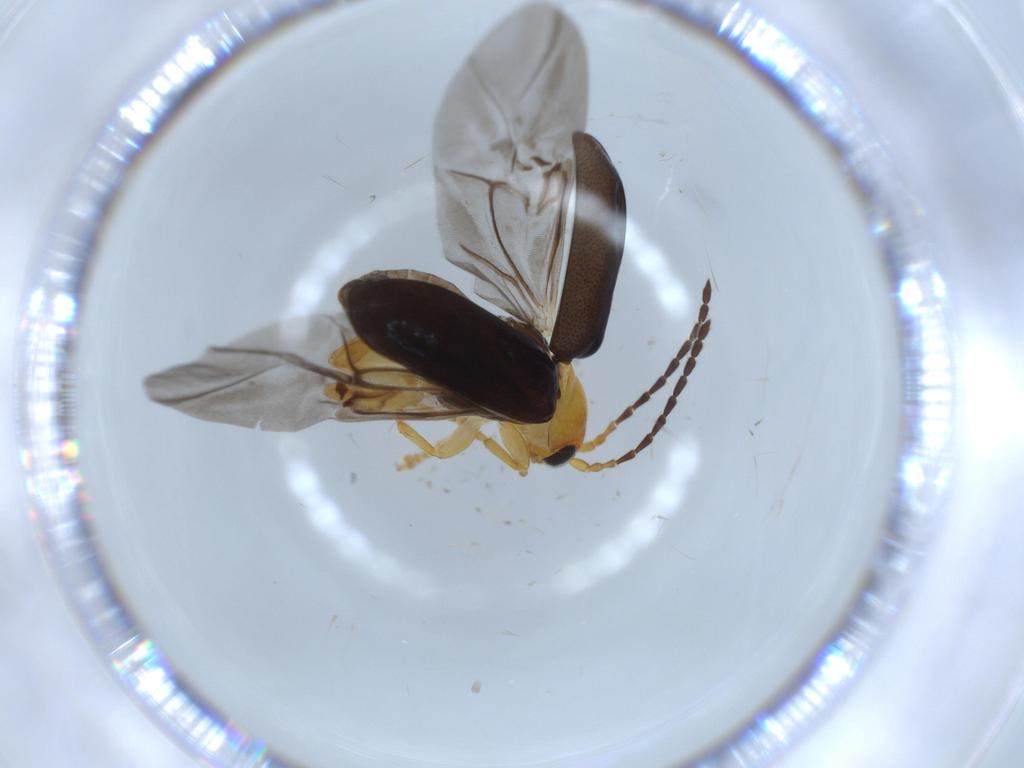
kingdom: Animalia
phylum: Arthropoda
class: Insecta
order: Coleoptera
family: Chrysomelidae
